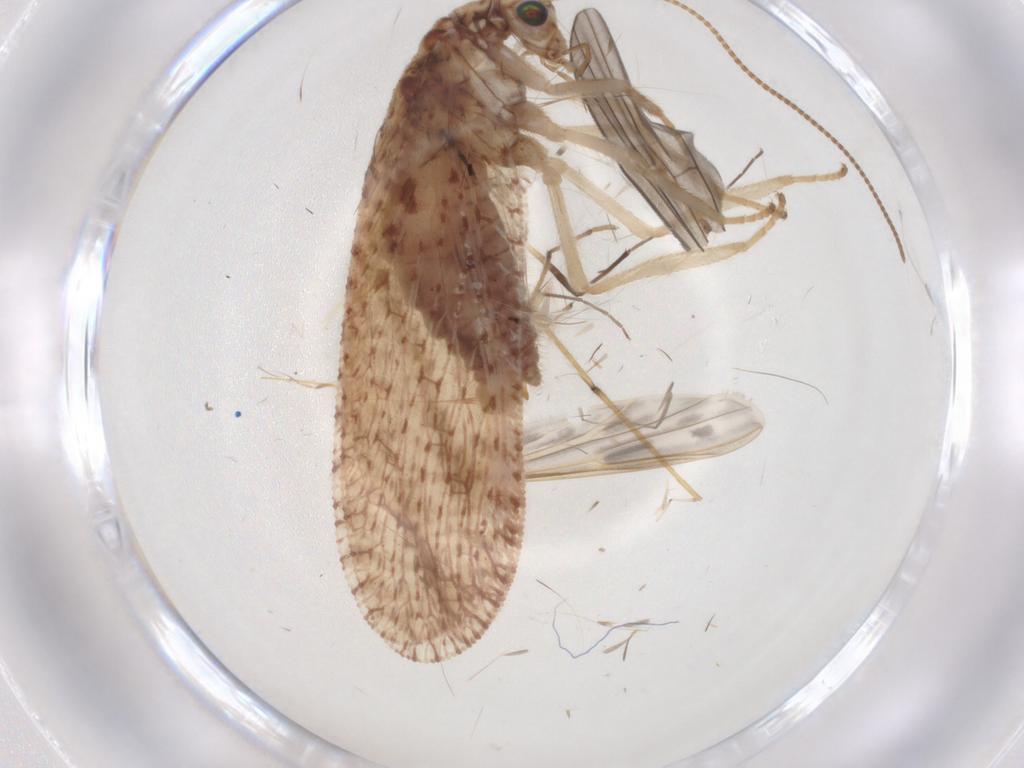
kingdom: Animalia
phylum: Arthropoda
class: Insecta
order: Neuroptera
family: Hemerobiidae
